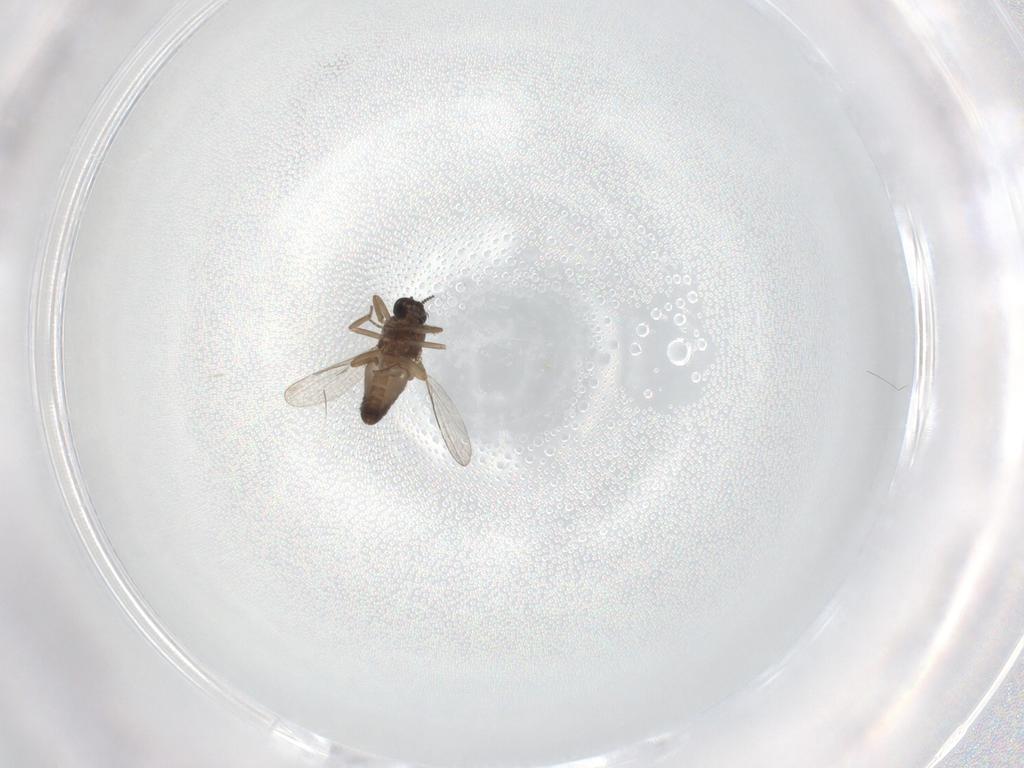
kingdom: Animalia
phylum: Arthropoda
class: Insecta
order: Diptera
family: Ceratopogonidae
